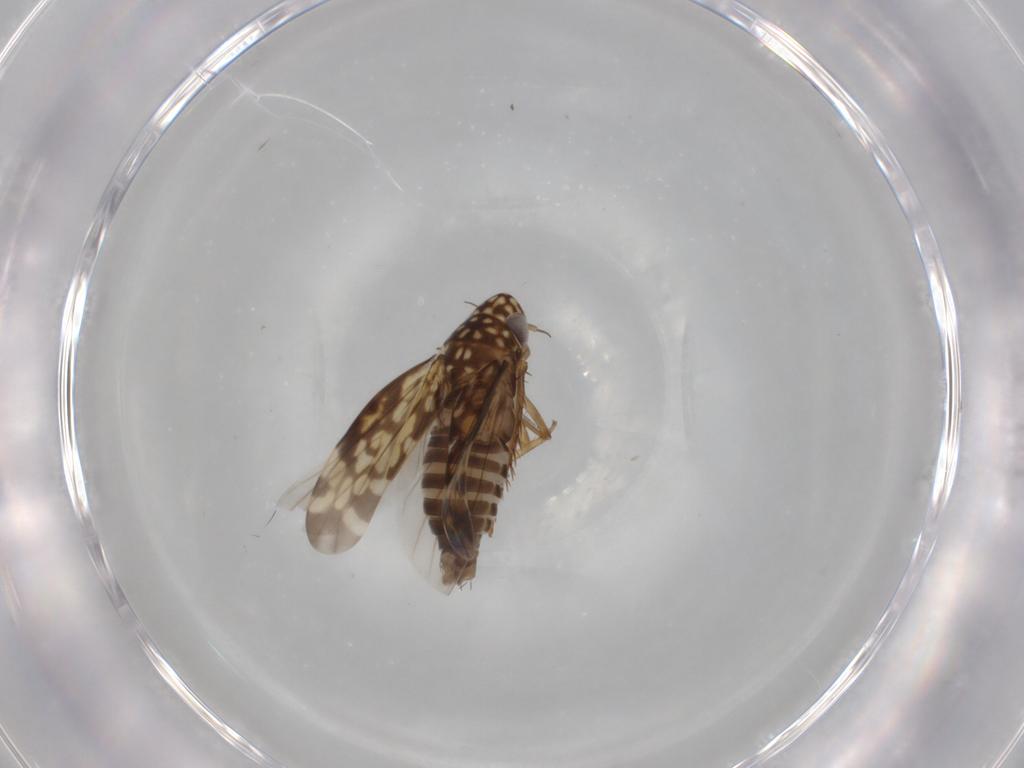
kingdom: Animalia
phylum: Arthropoda
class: Insecta
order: Hemiptera
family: Cicadellidae
